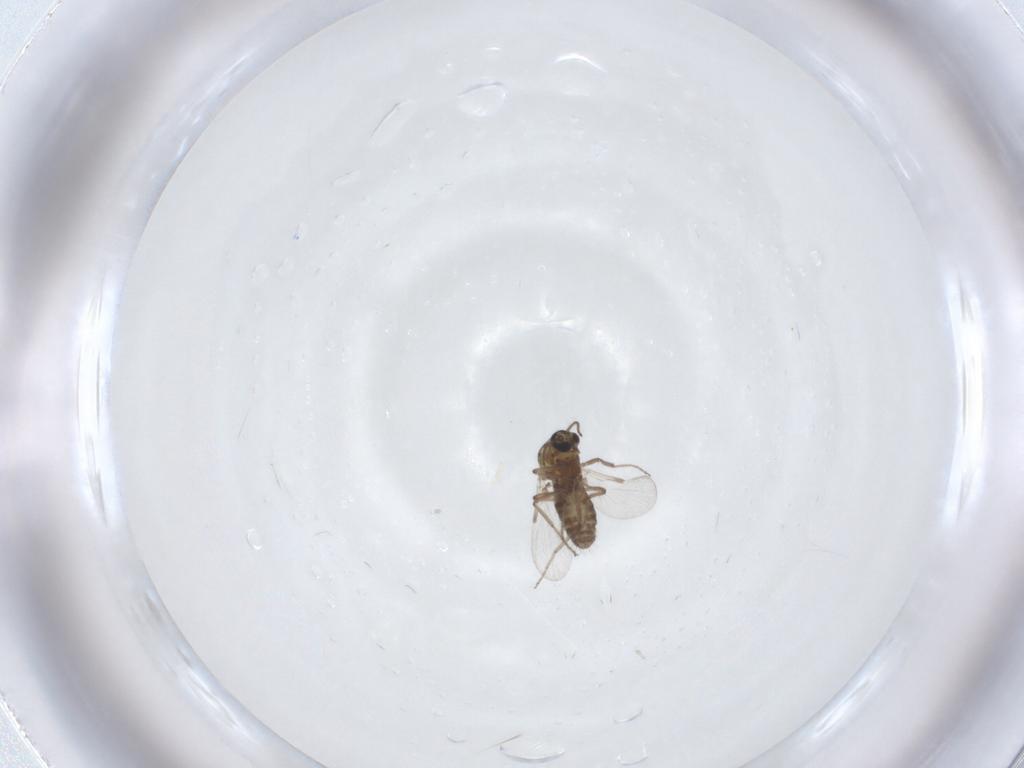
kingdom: Animalia
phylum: Arthropoda
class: Insecta
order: Diptera
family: Ceratopogonidae
